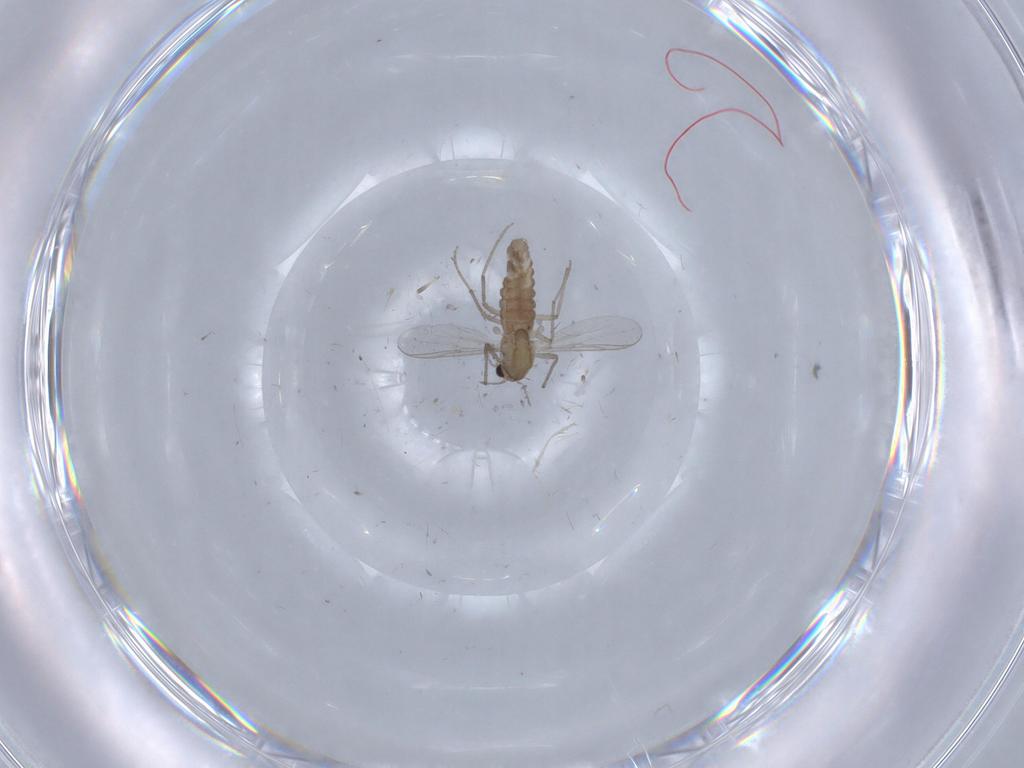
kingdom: Animalia
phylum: Arthropoda
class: Insecta
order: Diptera
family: Chironomidae
